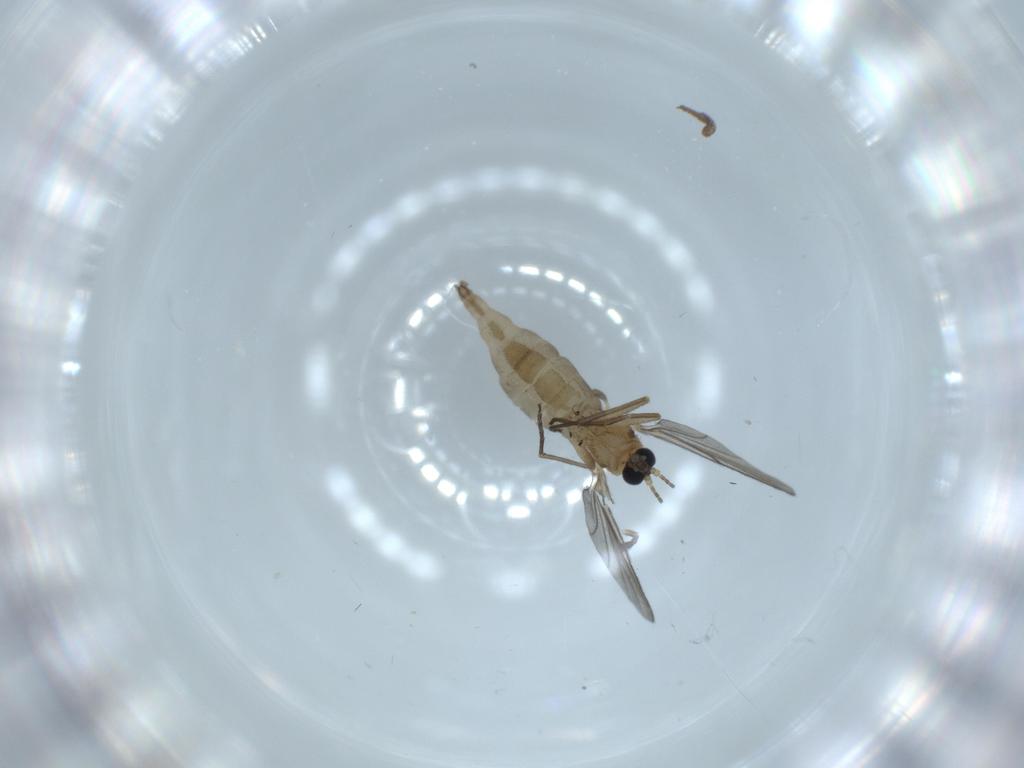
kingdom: Animalia
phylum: Arthropoda
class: Insecta
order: Diptera
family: Sciaridae
